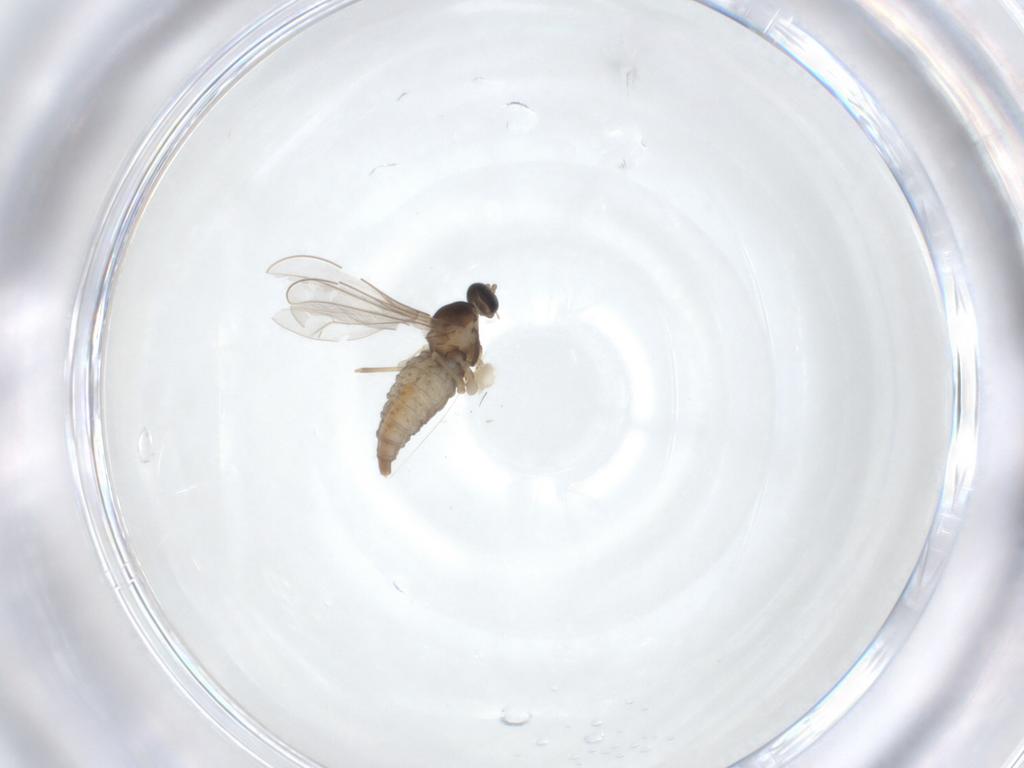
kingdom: Animalia
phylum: Arthropoda
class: Insecta
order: Diptera
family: Cecidomyiidae
